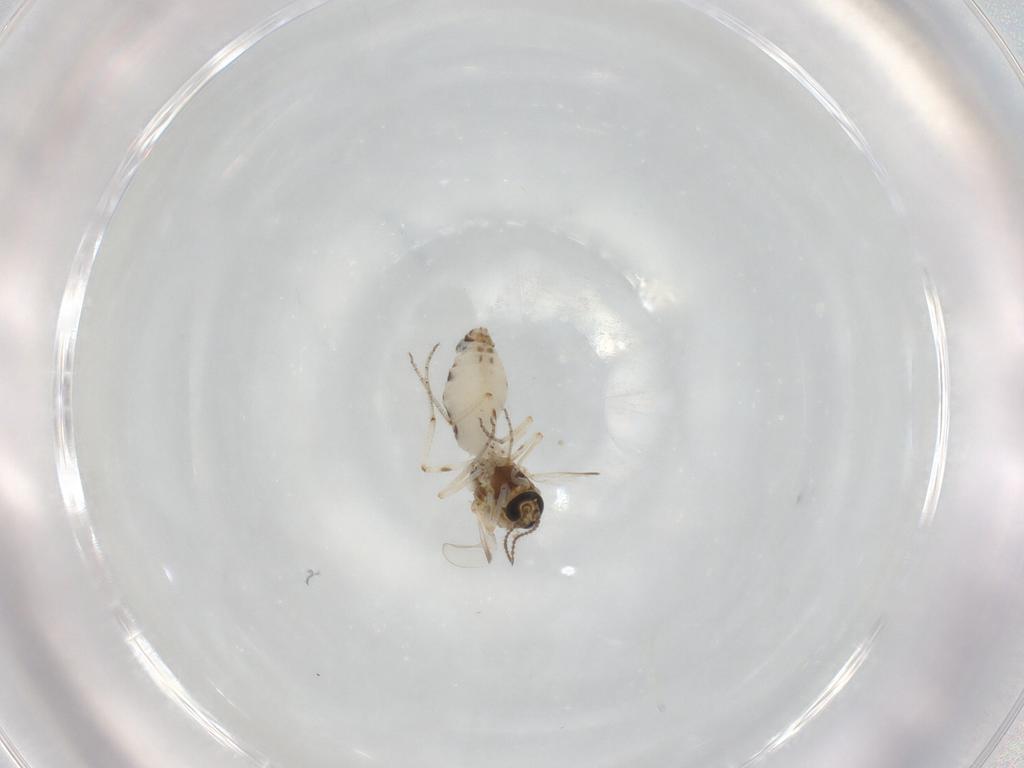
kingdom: Animalia
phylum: Arthropoda
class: Insecta
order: Diptera
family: Ceratopogonidae
